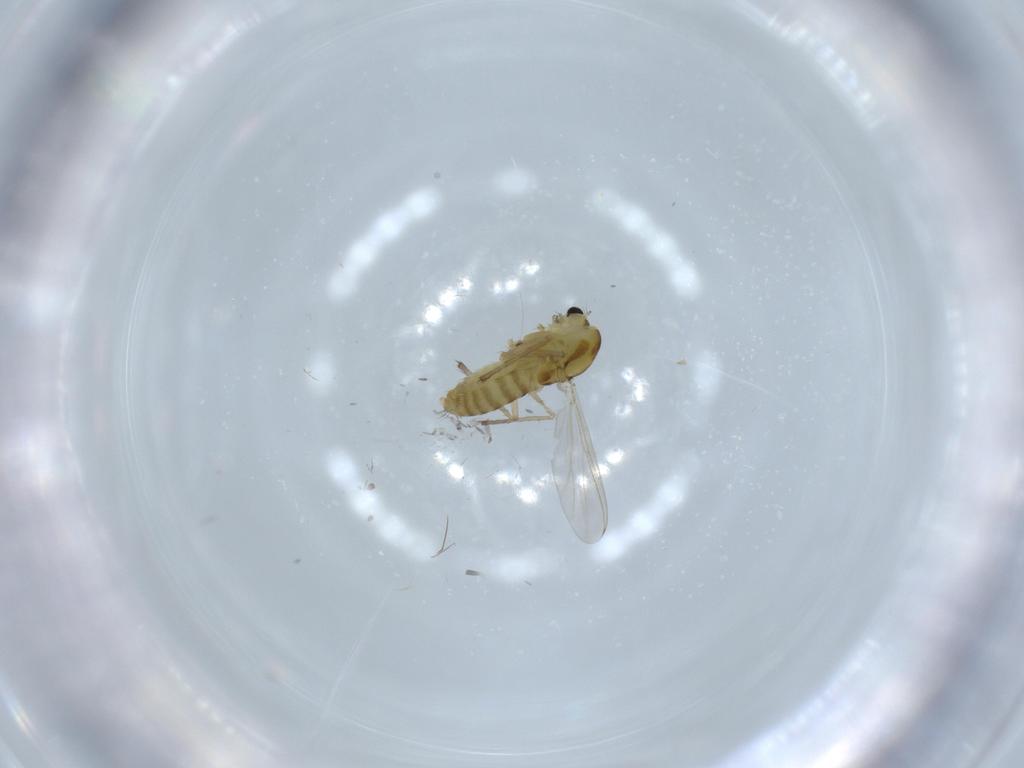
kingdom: Animalia
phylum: Arthropoda
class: Insecta
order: Diptera
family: Chironomidae
